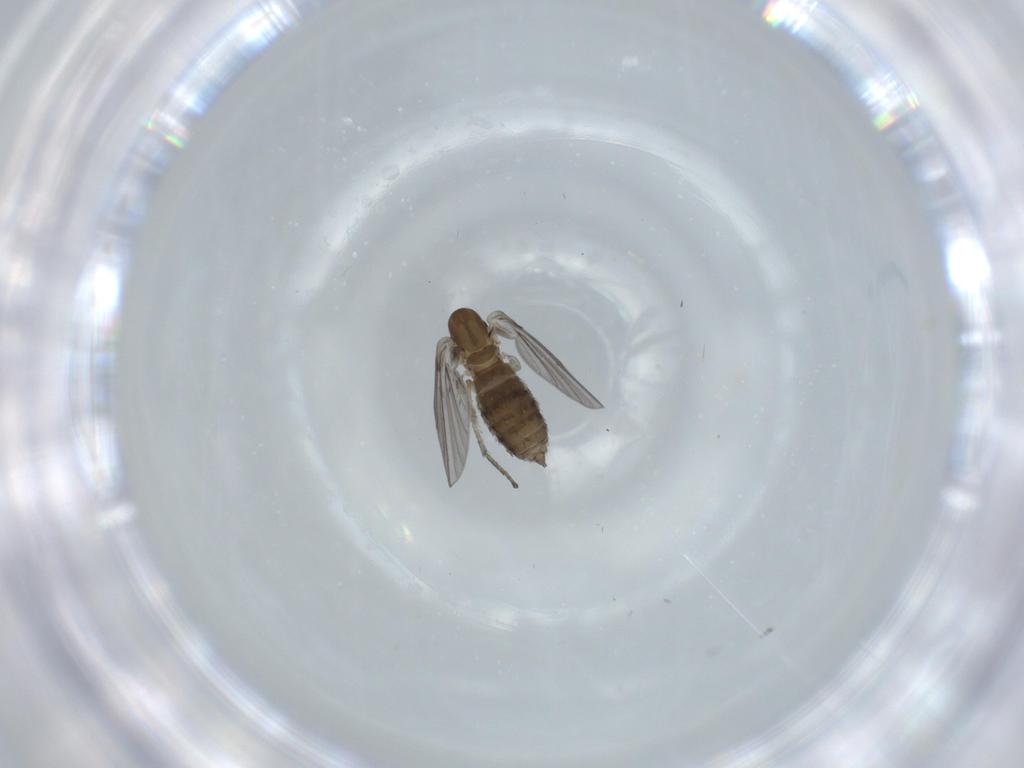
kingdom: Animalia
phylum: Arthropoda
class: Insecta
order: Diptera
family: Psychodidae
